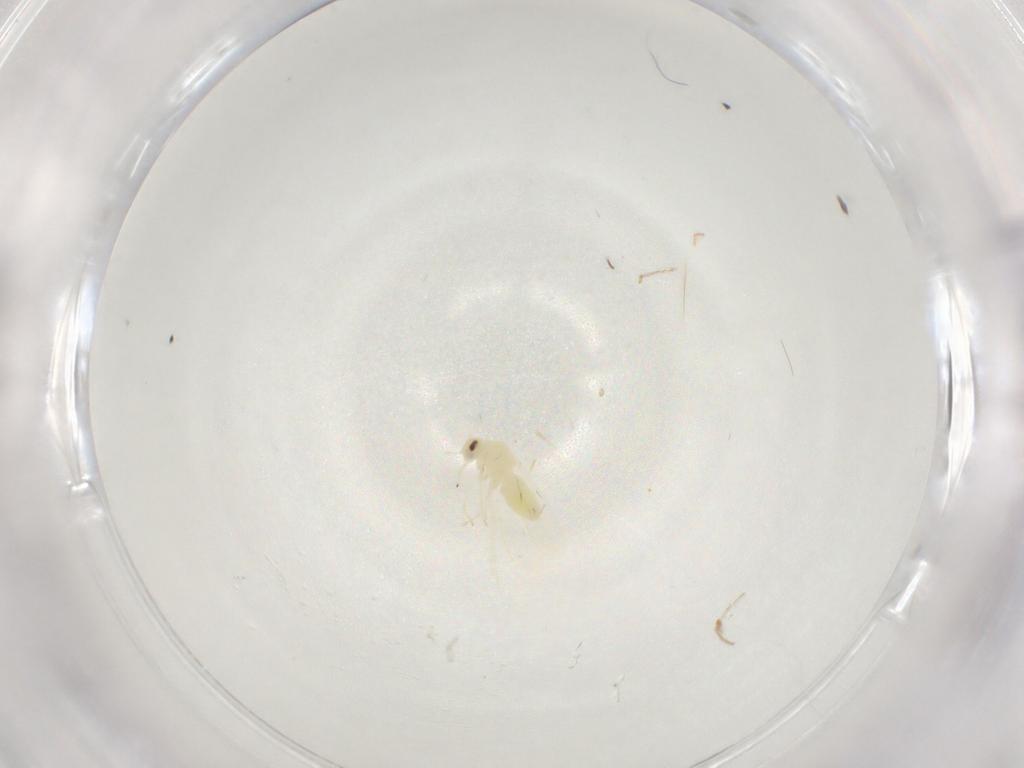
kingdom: Animalia
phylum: Arthropoda
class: Insecta
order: Hemiptera
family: Aleyrodidae
